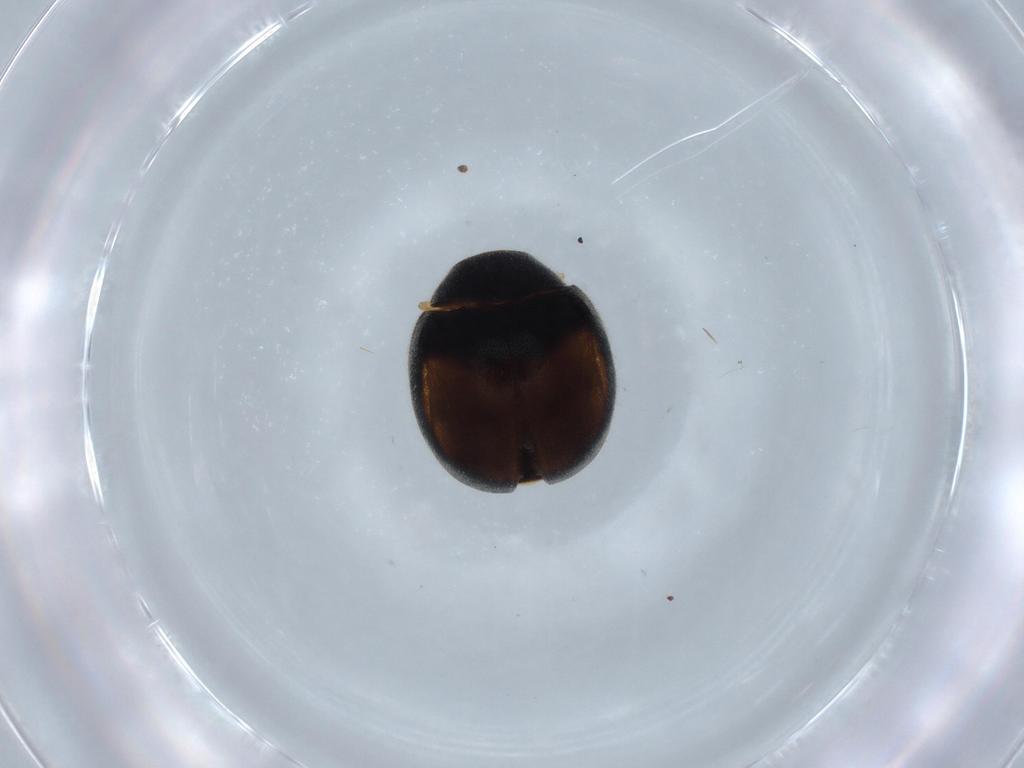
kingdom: Animalia
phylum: Arthropoda
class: Insecta
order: Coleoptera
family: Coccinellidae
